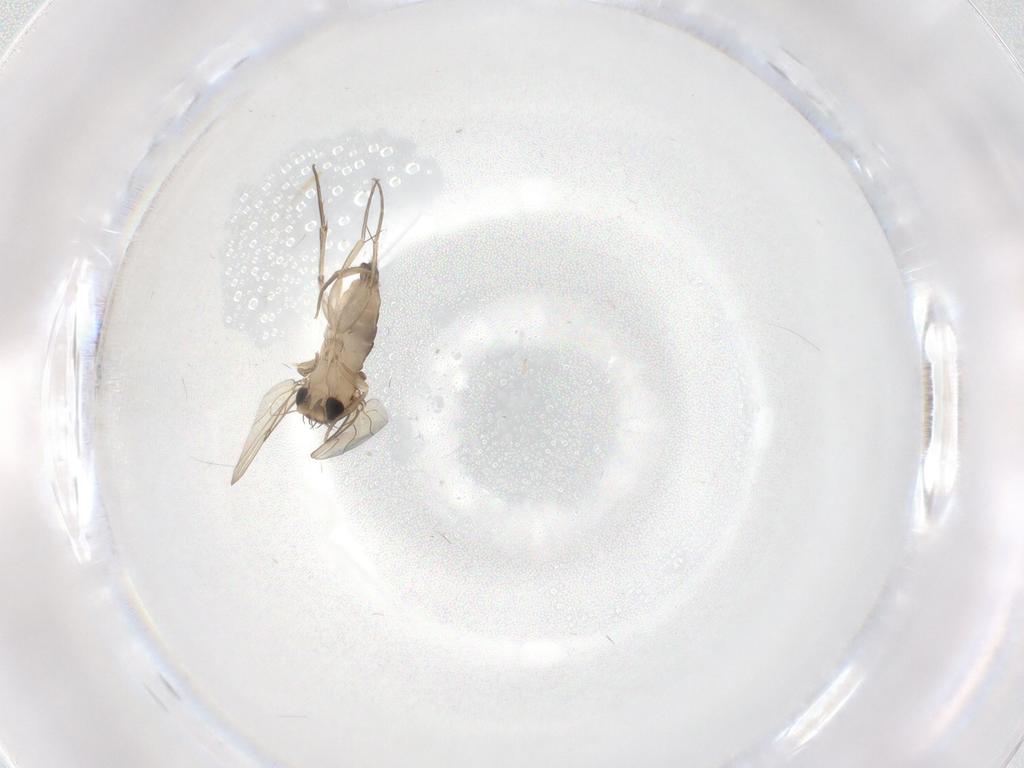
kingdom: Animalia
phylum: Arthropoda
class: Insecta
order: Diptera
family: Chironomidae
